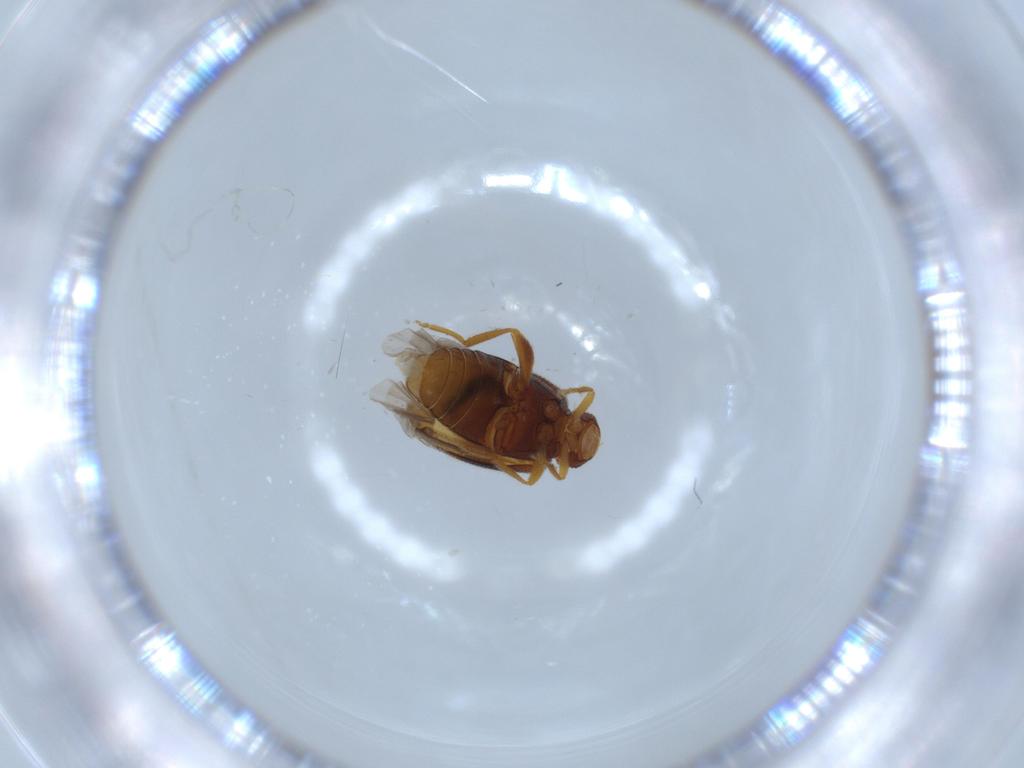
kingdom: Animalia
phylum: Arthropoda
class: Insecta
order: Coleoptera
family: Aderidae
